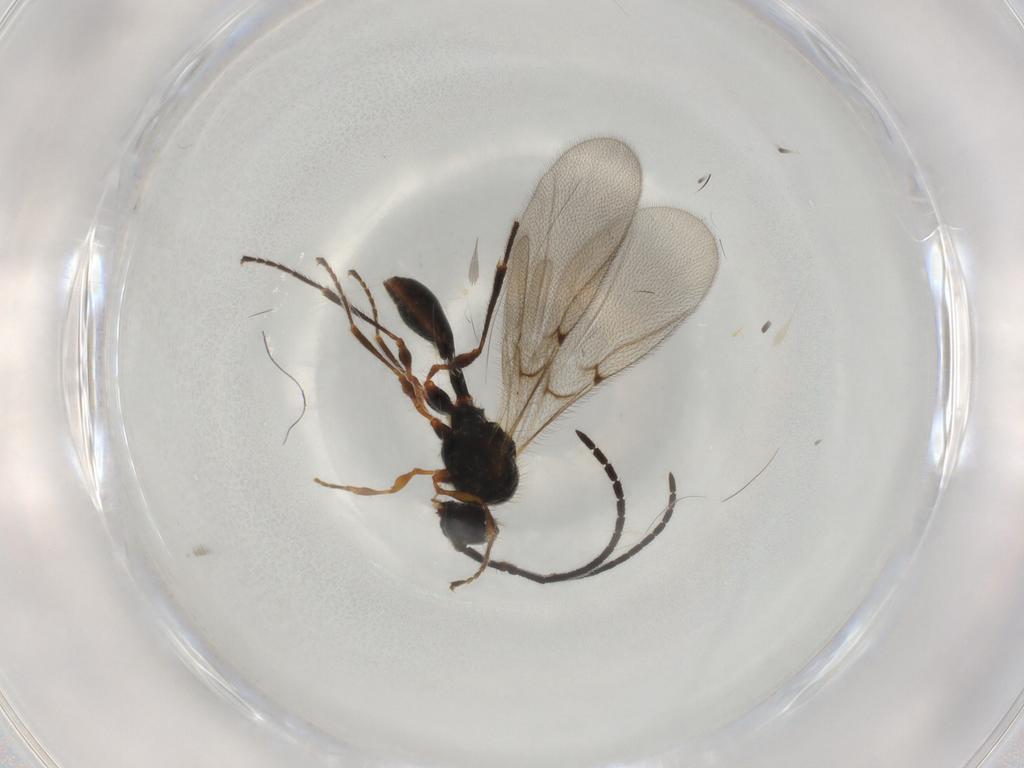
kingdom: Animalia
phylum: Arthropoda
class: Insecta
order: Hymenoptera
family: Diapriidae
